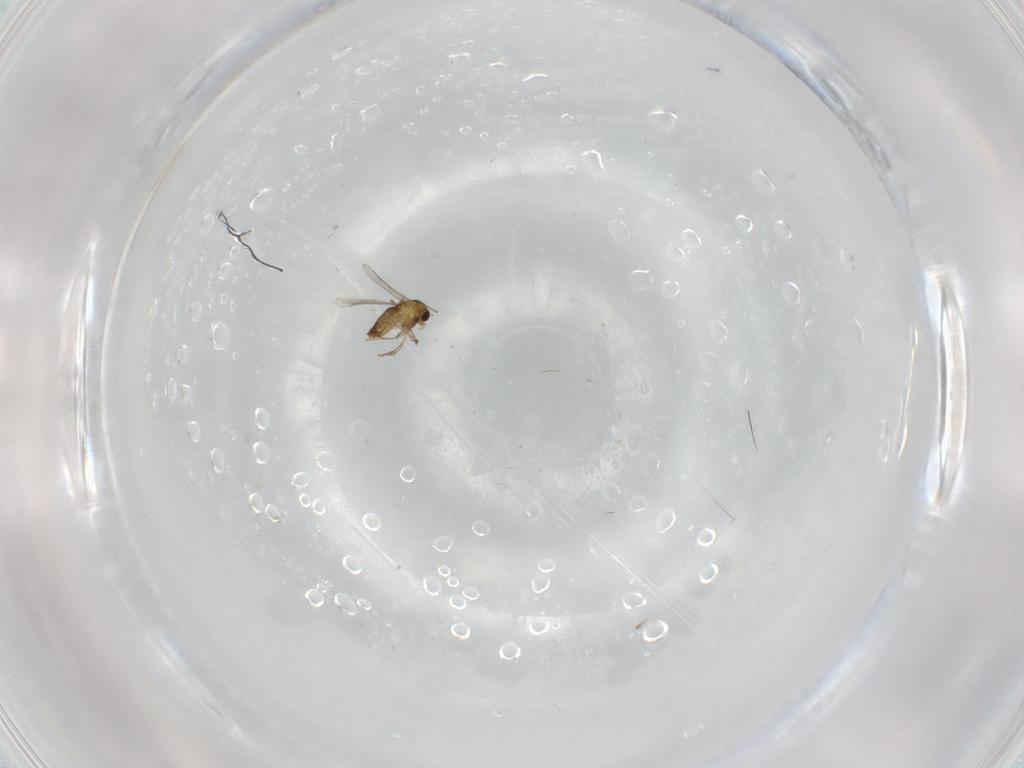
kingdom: Animalia
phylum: Arthropoda
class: Insecta
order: Diptera
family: Chironomidae
